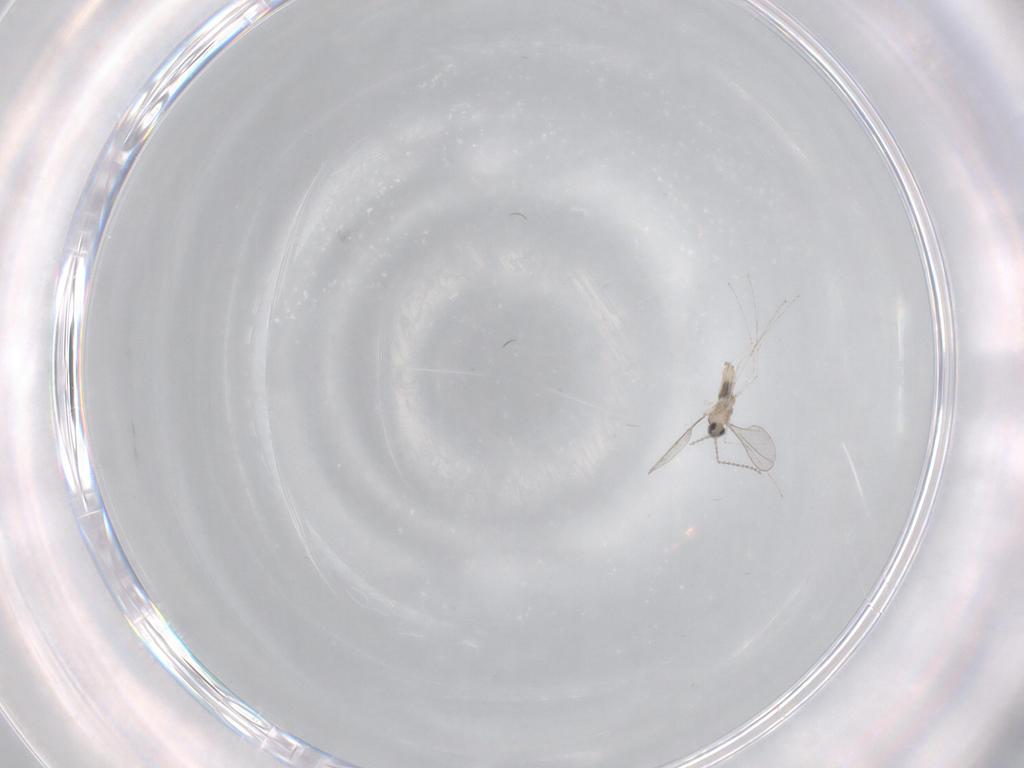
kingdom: Animalia
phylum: Arthropoda
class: Insecta
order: Diptera
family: Cecidomyiidae
